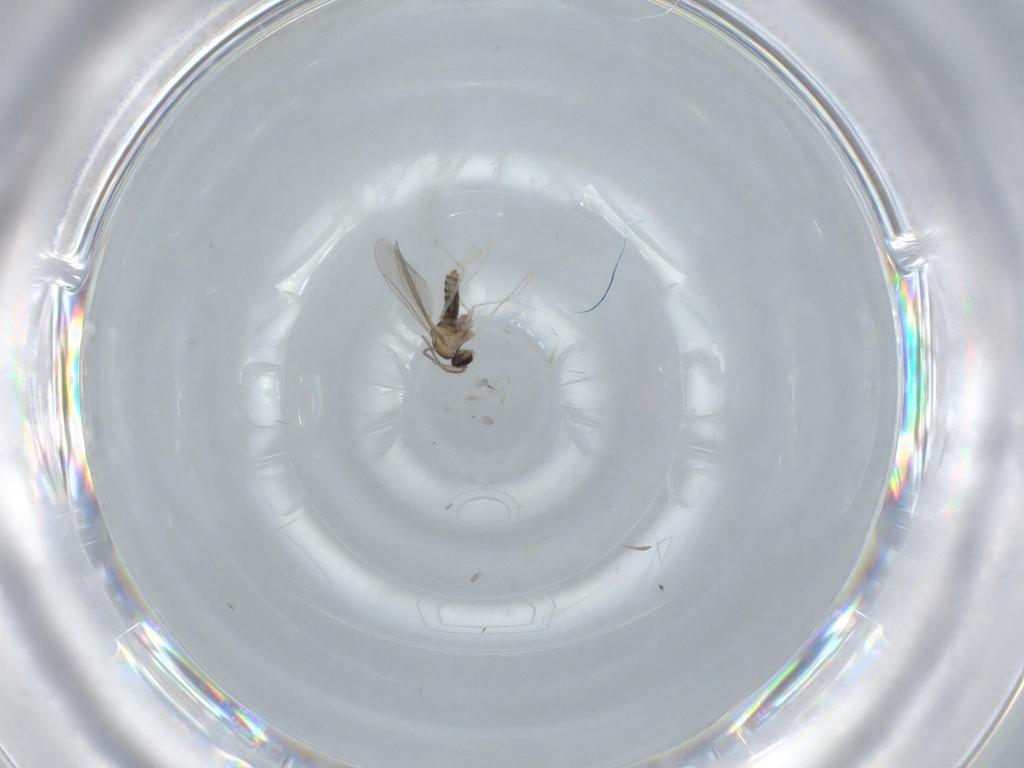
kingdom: Animalia
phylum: Arthropoda
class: Insecta
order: Diptera
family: Cecidomyiidae
